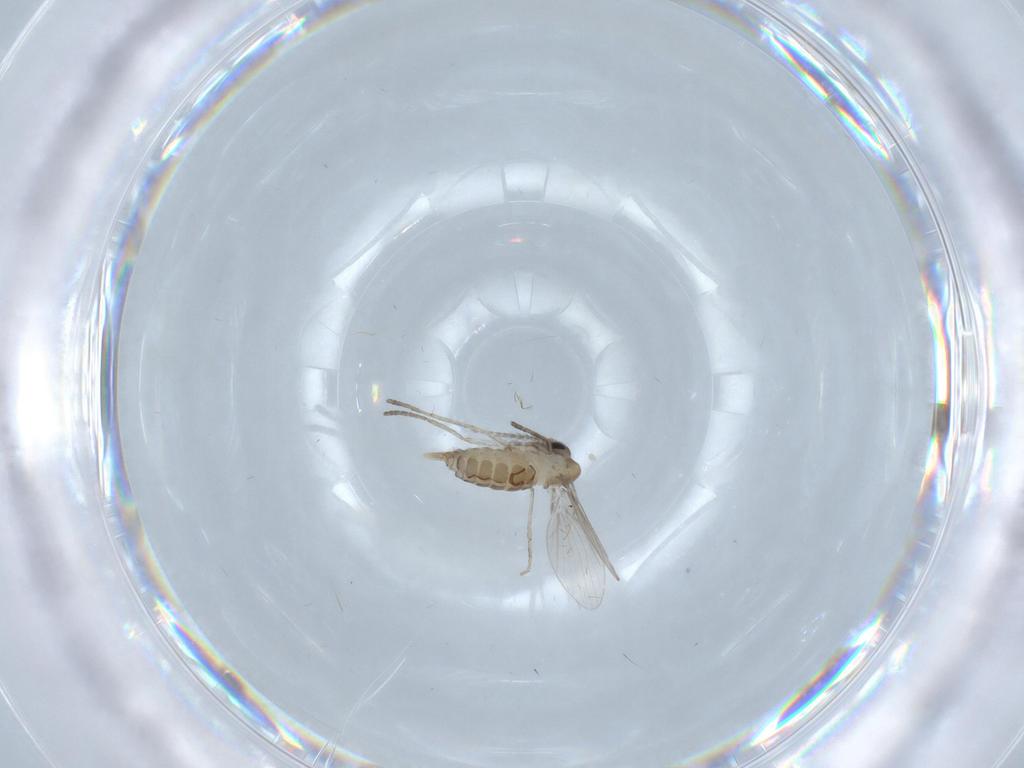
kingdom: Animalia
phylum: Arthropoda
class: Insecta
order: Diptera
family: Psychodidae
